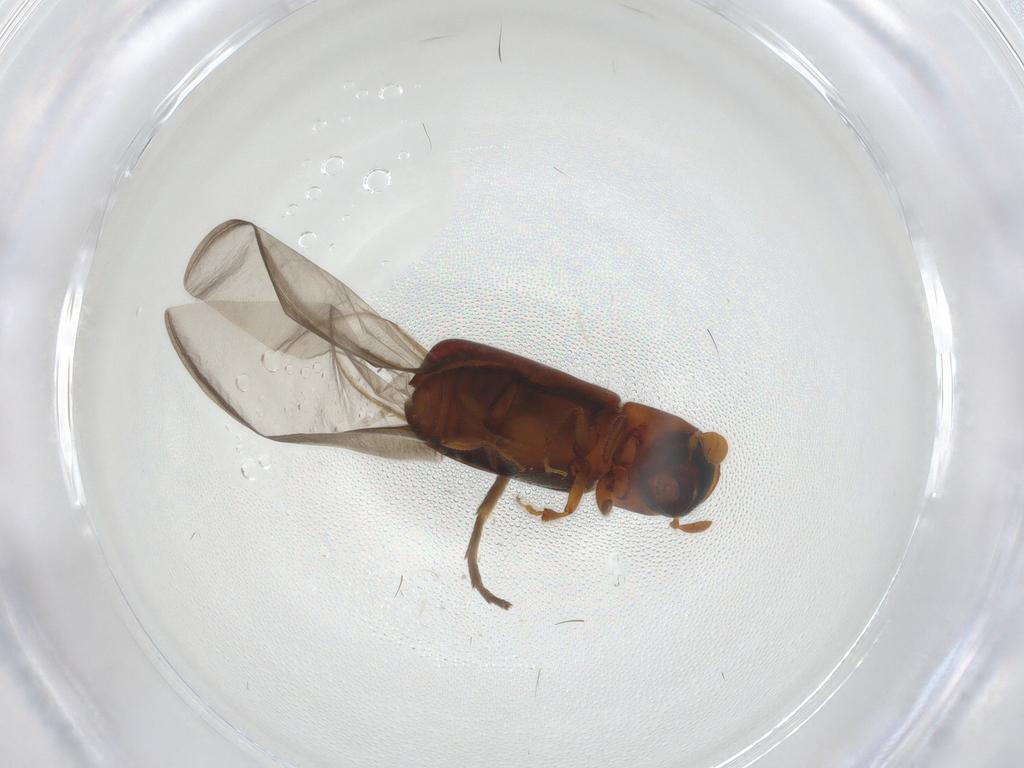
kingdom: Animalia
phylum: Arthropoda
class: Insecta
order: Coleoptera
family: Curculionidae
